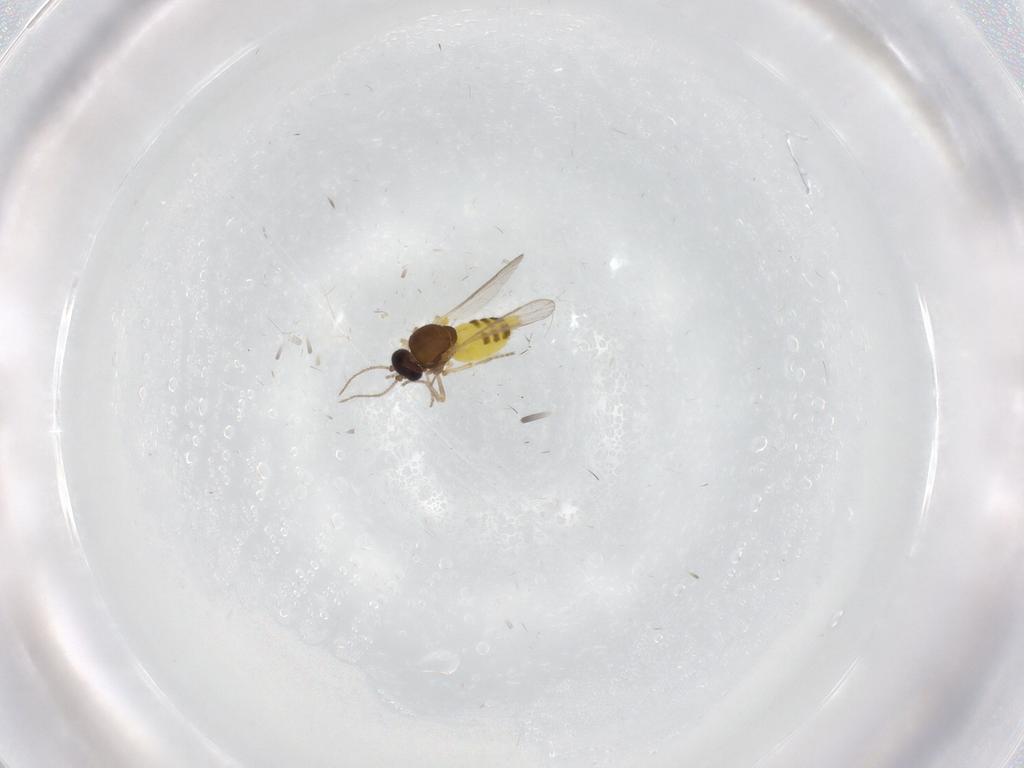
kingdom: Animalia
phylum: Arthropoda
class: Insecta
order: Diptera
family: Ceratopogonidae
